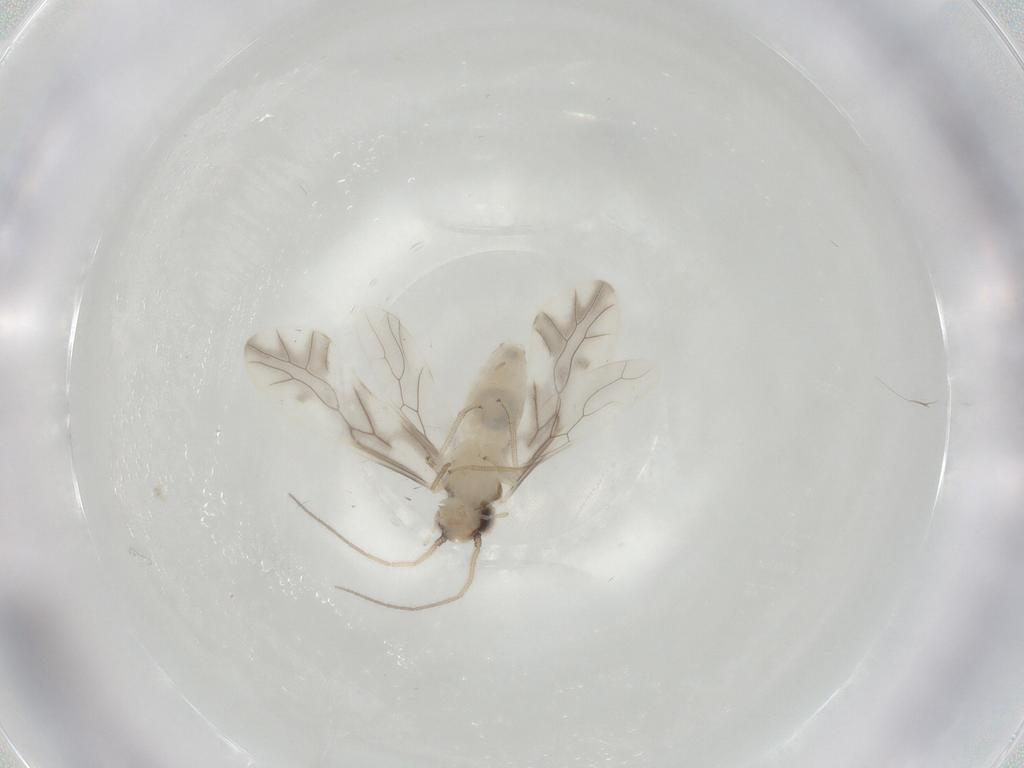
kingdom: Animalia
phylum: Arthropoda
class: Insecta
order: Psocodea
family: Caeciliusidae
